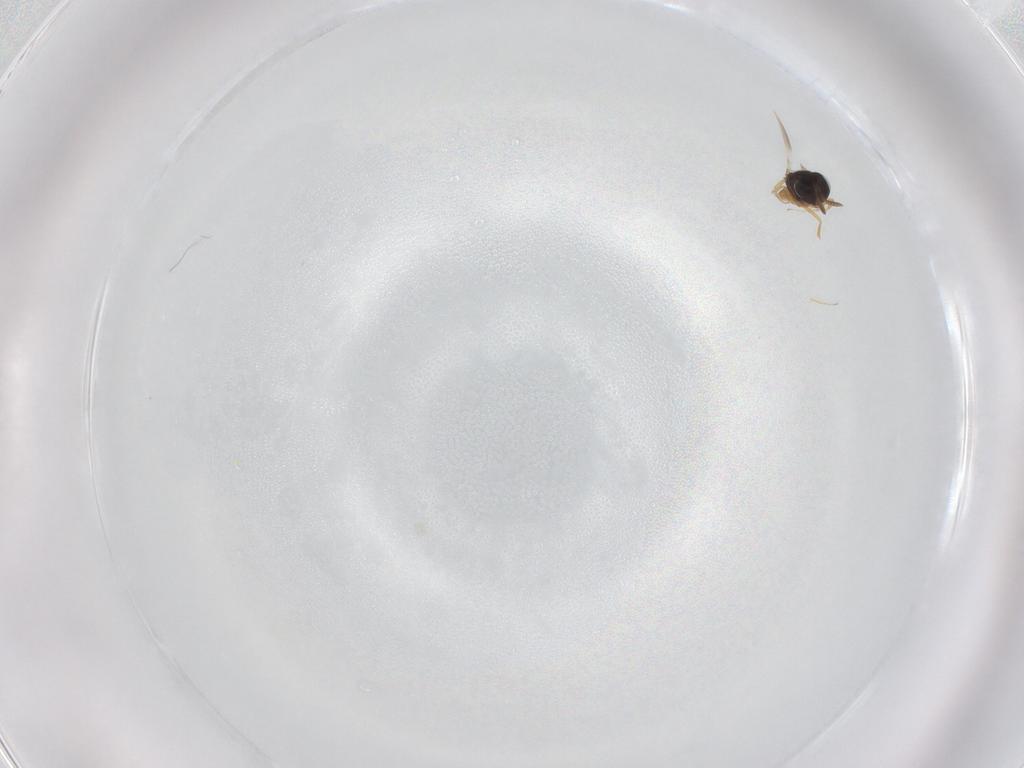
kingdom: Animalia
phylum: Arthropoda
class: Insecta
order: Hymenoptera
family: Scelionidae
